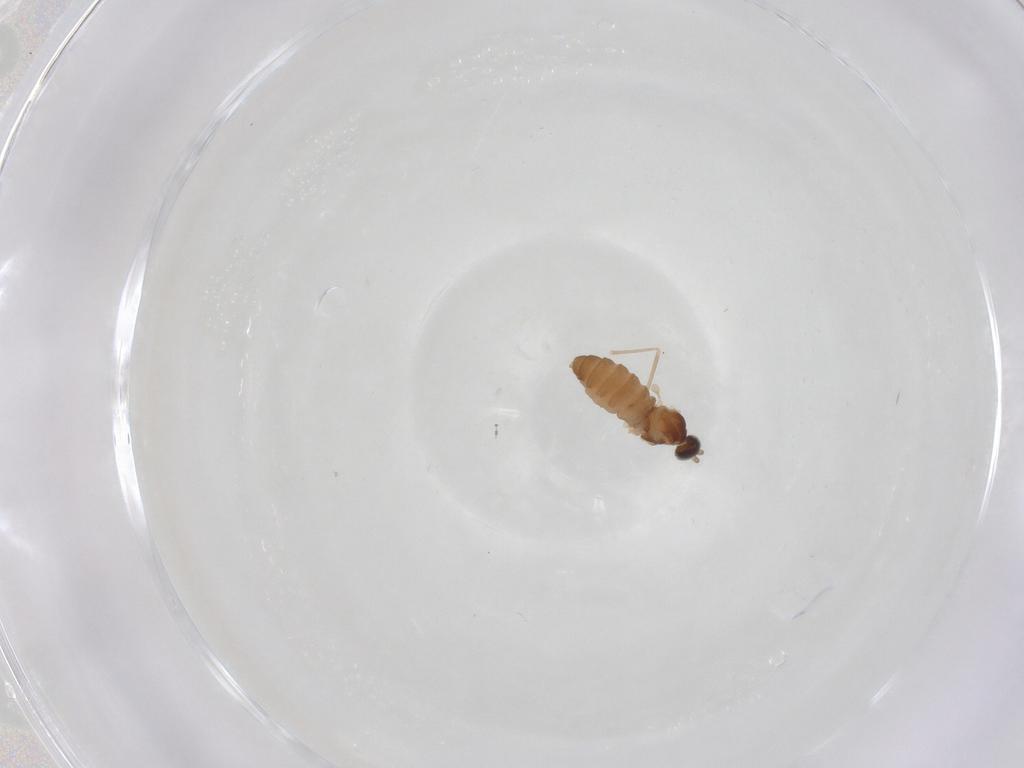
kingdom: Animalia
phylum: Arthropoda
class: Insecta
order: Diptera
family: Cecidomyiidae
